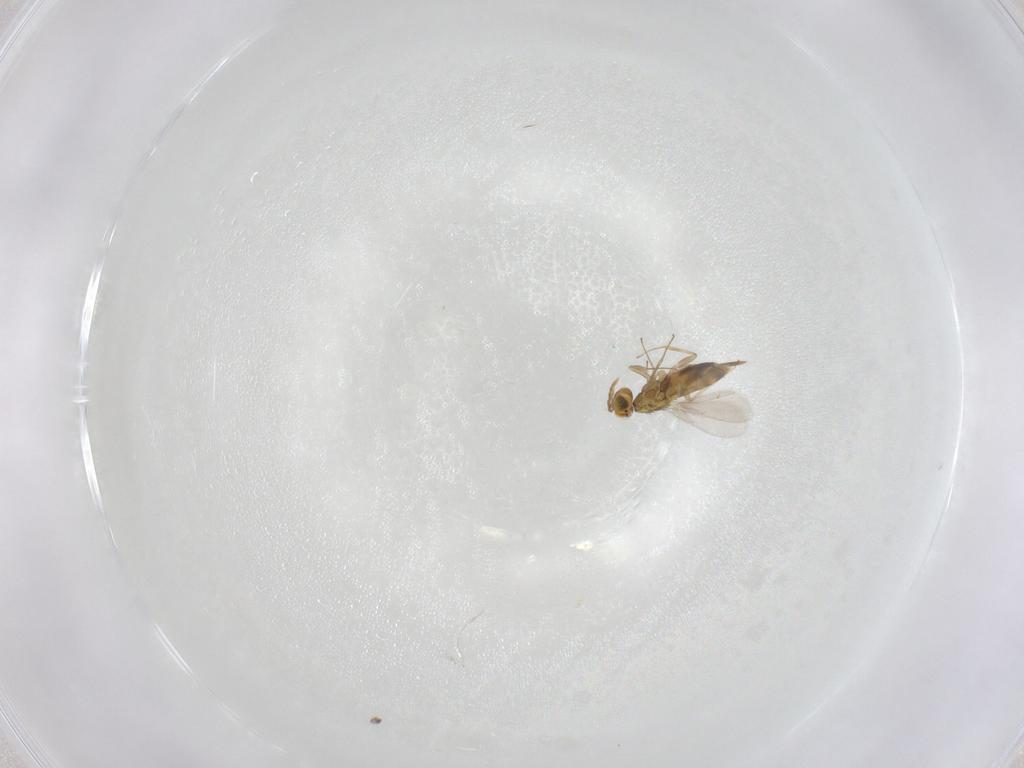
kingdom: Animalia
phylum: Arthropoda
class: Insecta
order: Hymenoptera
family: Aphelinidae
